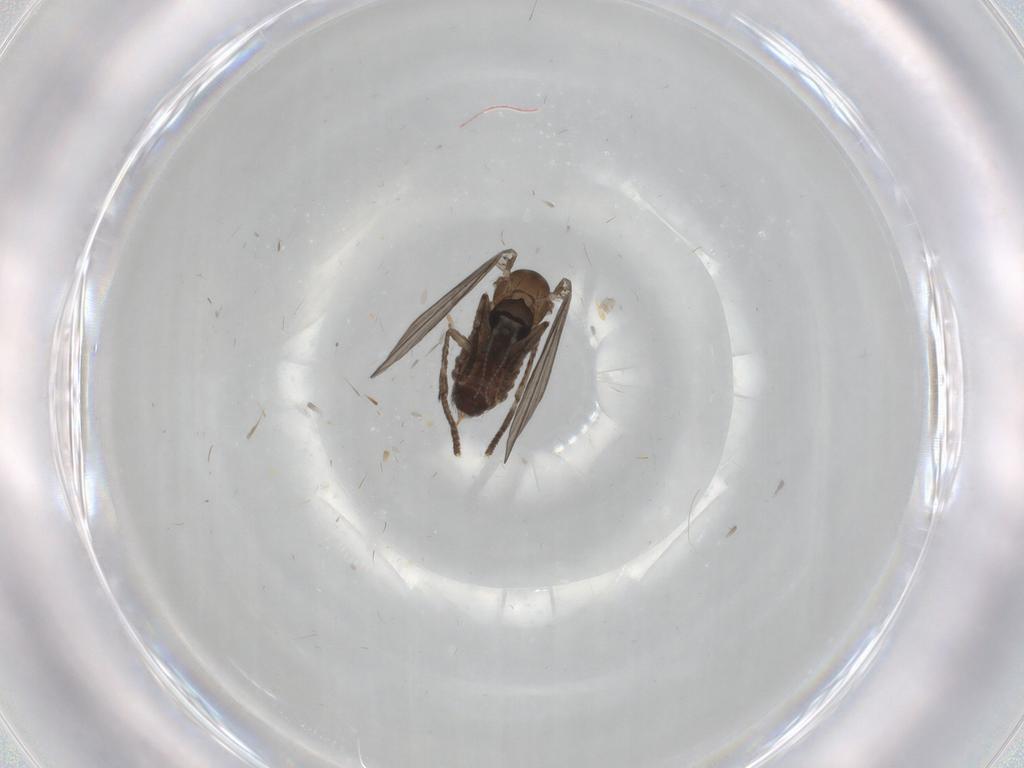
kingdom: Animalia
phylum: Arthropoda
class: Insecta
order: Diptera
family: Psychodidae
